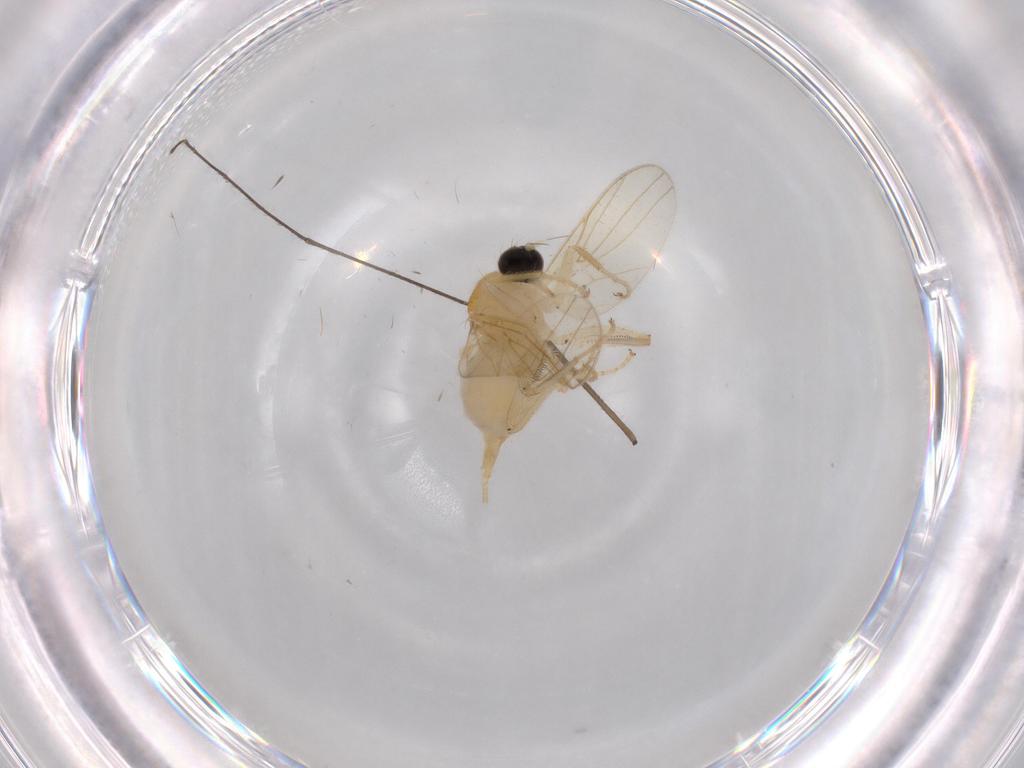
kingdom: Animalia
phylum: Arthropoda
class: Insecta
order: Diptera
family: Limoniidae
